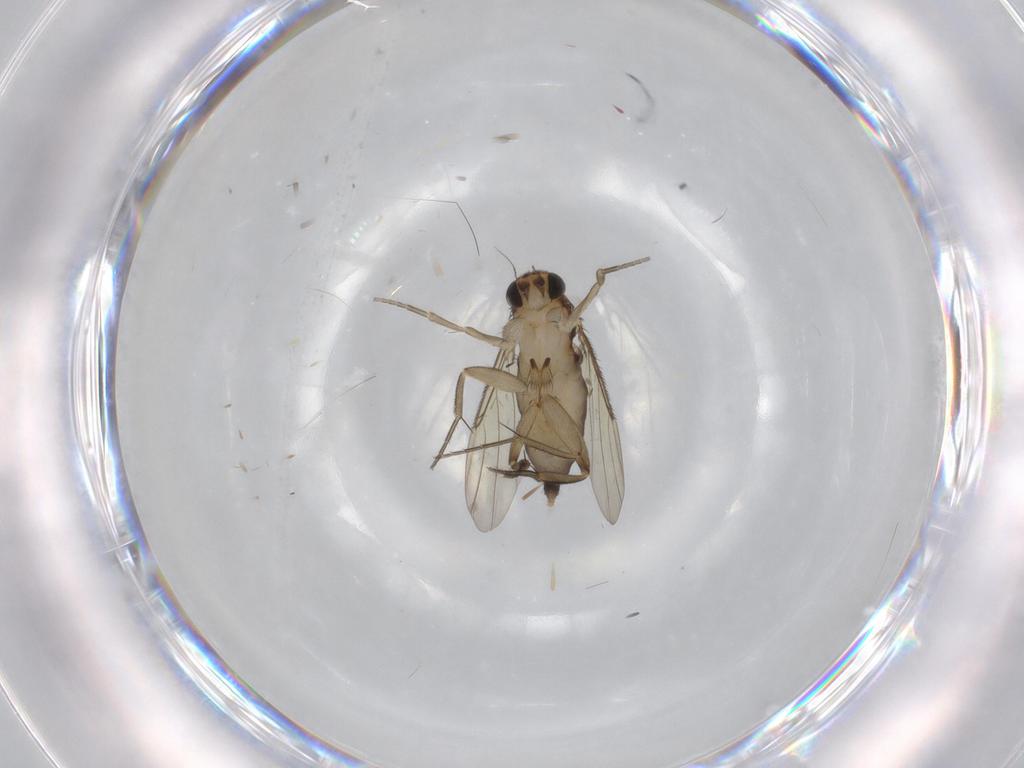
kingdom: Animalia
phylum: Arthropoda
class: Insecta
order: Diptera
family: Phoridae
